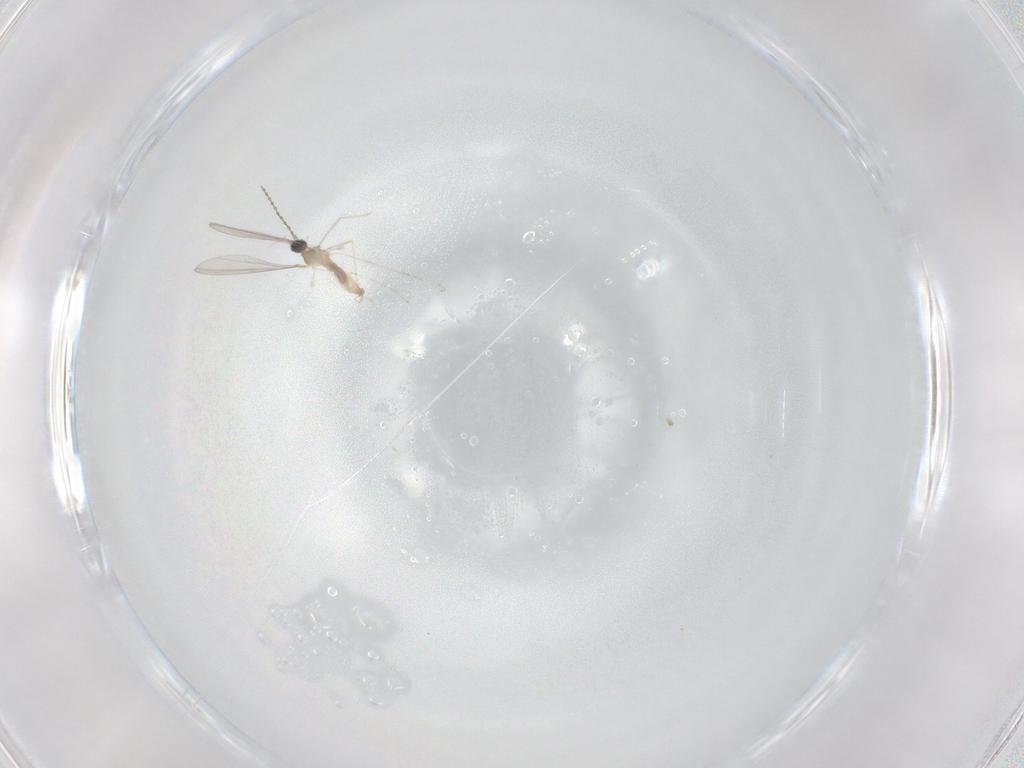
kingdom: Animalia
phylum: Arthropoda
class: Insecta
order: Diptera
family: Cecidomyiidae
